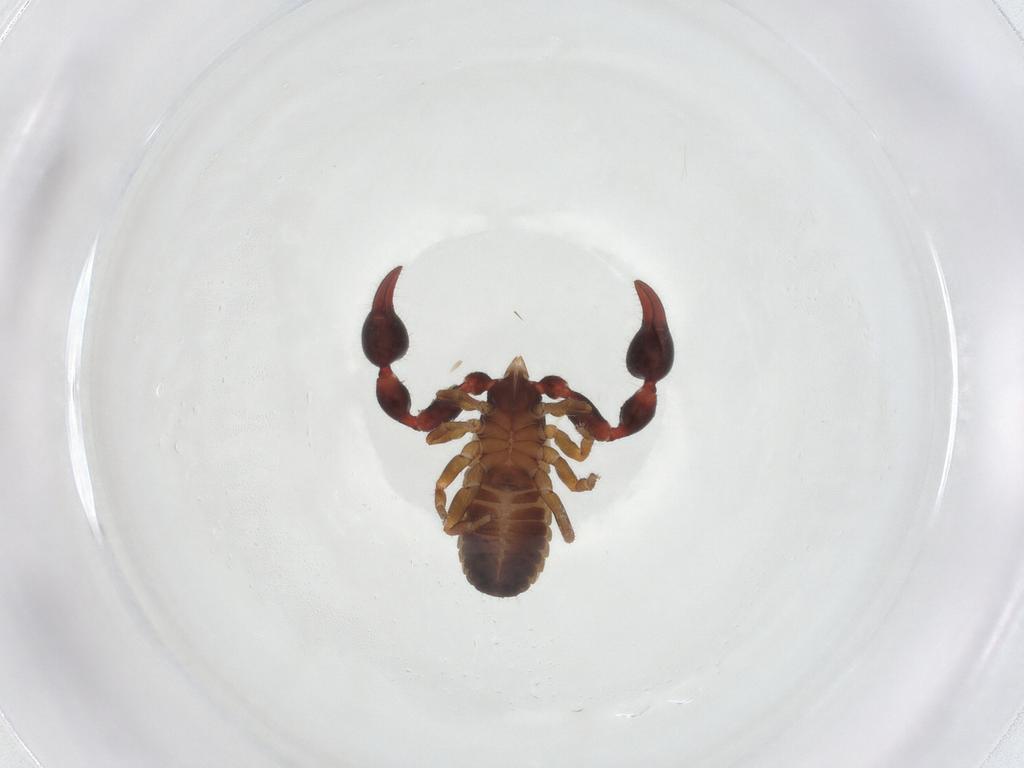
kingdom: Animalia
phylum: Arthropoda
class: Arachnida
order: Pseudoscorpiones
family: Chernetidae
